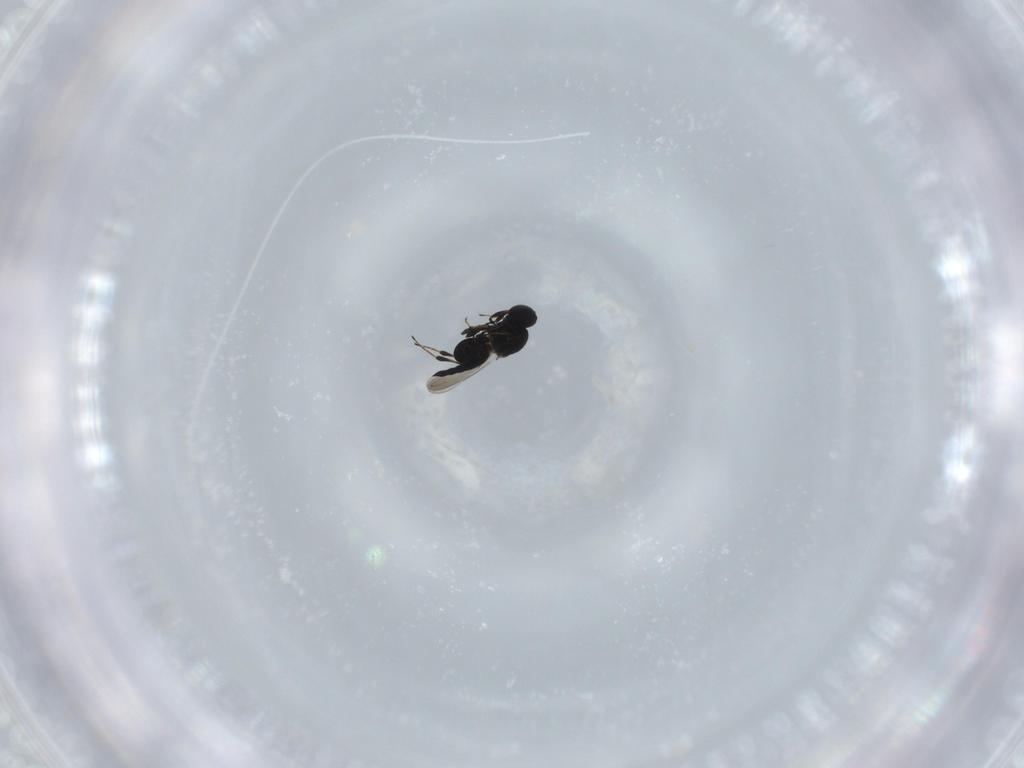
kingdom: Animalia
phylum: Arthropoda
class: Insecta
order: Hymenoptera
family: Platygastridae
